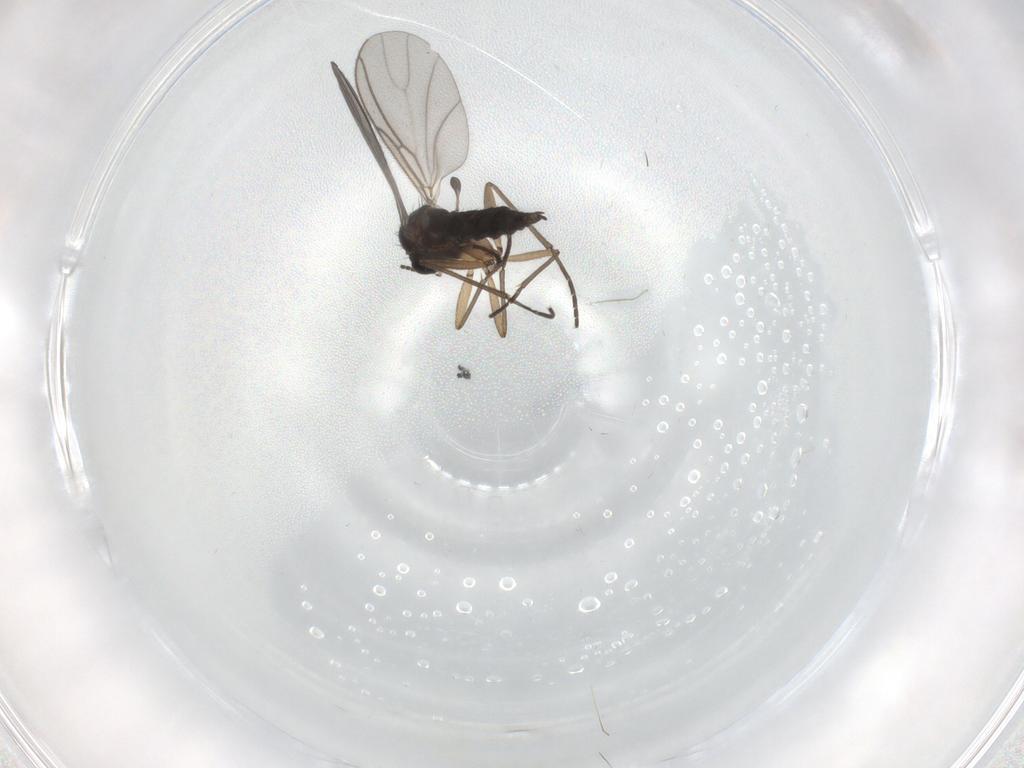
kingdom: Animalia
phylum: Arthropoda
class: Insecta
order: Diptera
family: Sciaridae
